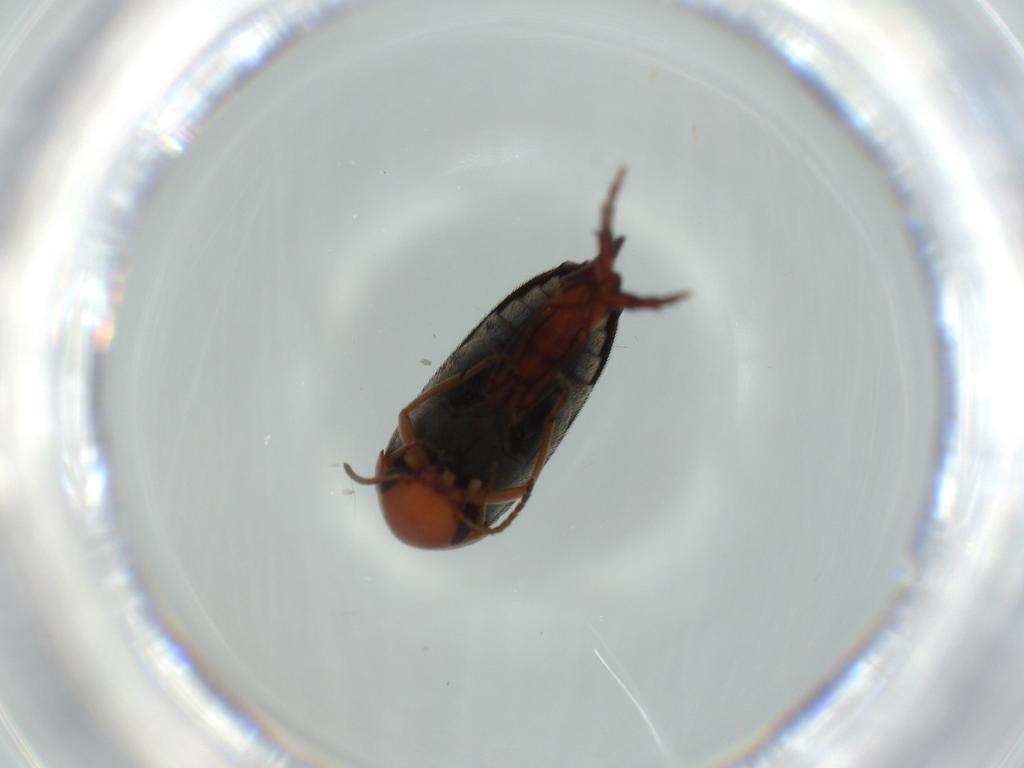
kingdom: Animalia
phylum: Arthropoda
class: Insecta
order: Coleoptera
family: Mordellidae
